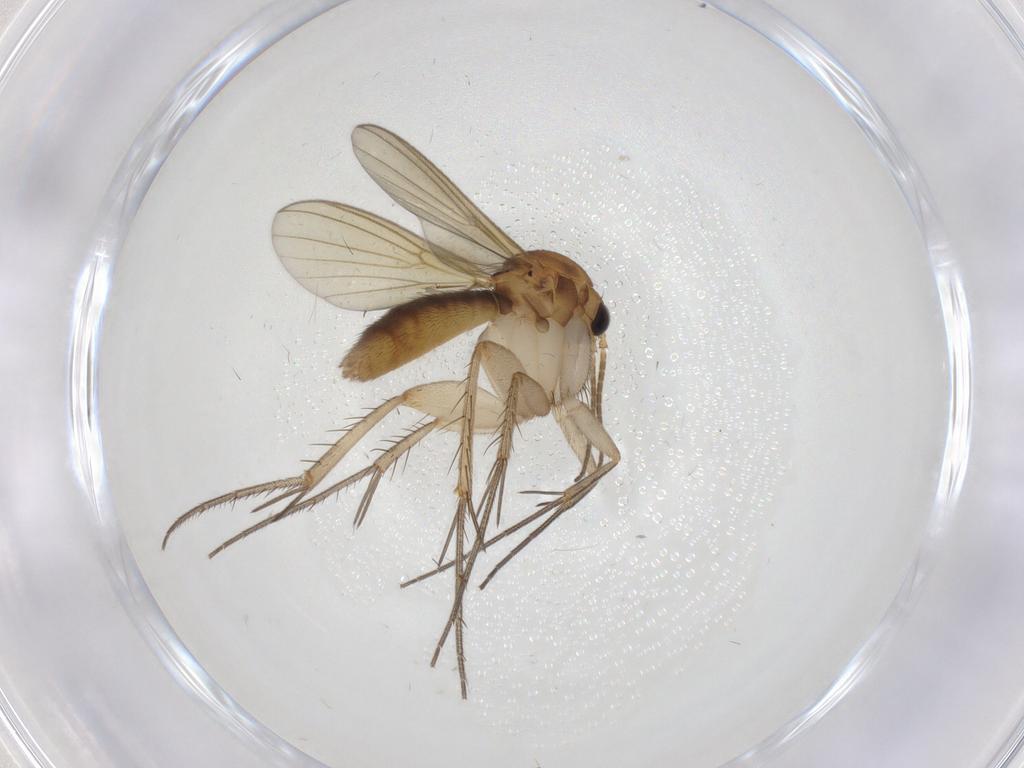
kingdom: Animalia
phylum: Arthropoda
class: Insecta
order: Diptera
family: Mycetophilidae
